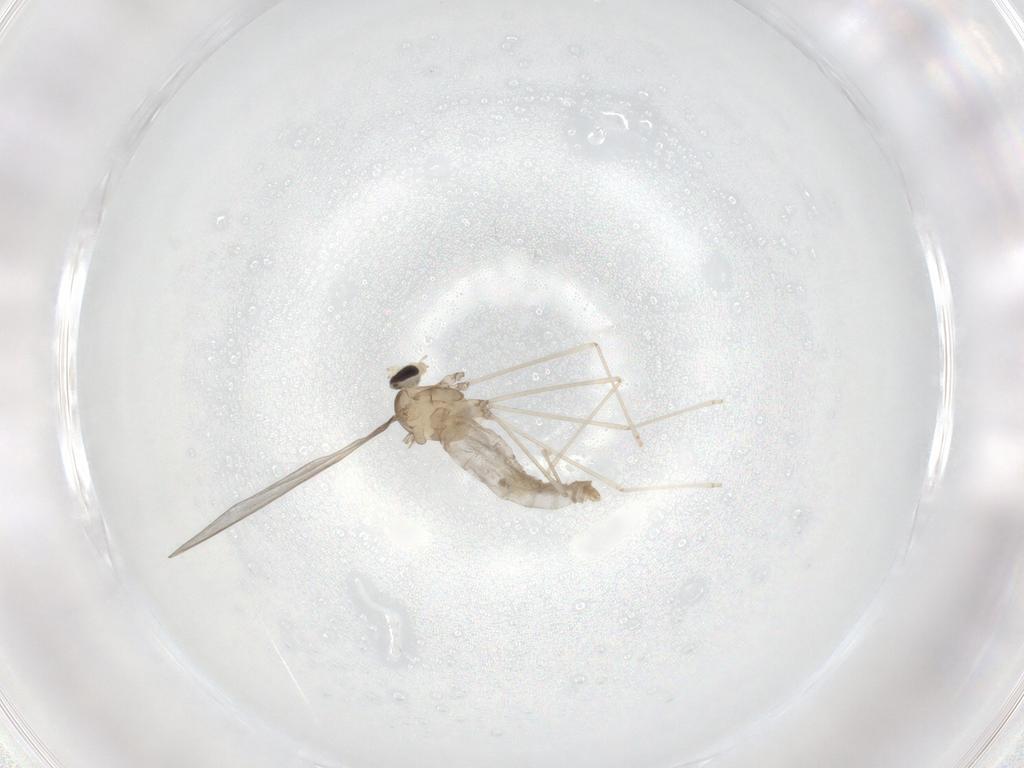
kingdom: Animalia
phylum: Arthropoda
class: Insecta
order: Diptera
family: Cecidomyiidae
